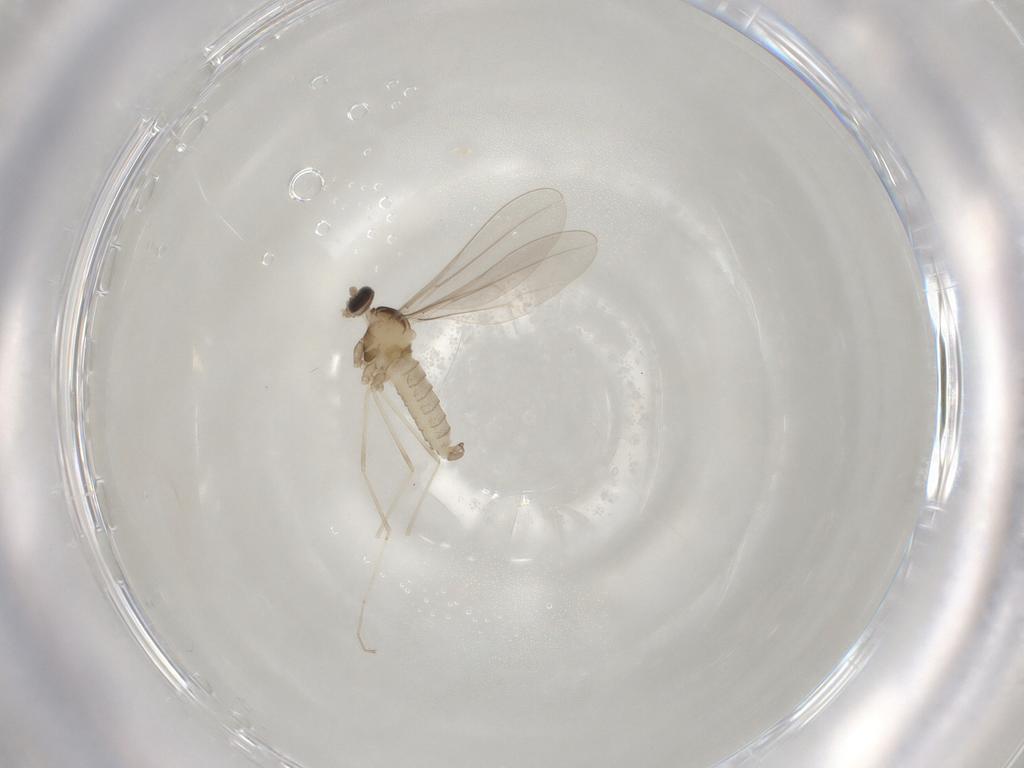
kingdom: Animalia
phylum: Arthropoda
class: Insecta
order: Diptera
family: Cecidomyiidae
